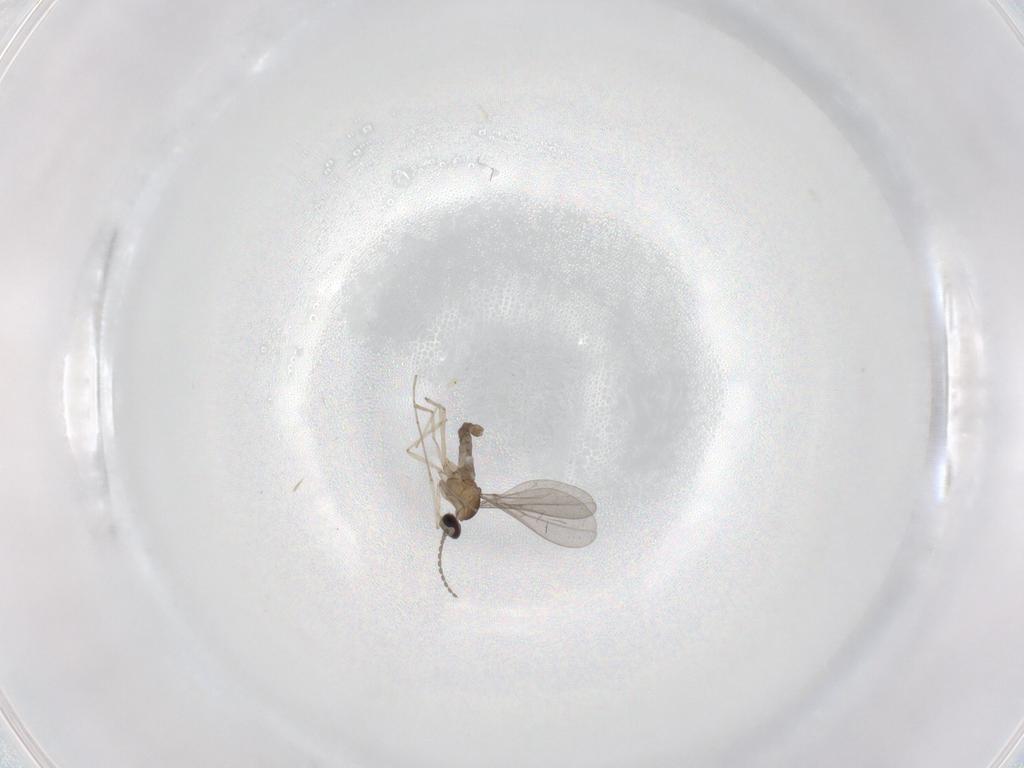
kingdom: Animalia
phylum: Arthropoda
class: Insecta
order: Diptera
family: Cecidomyiidae
